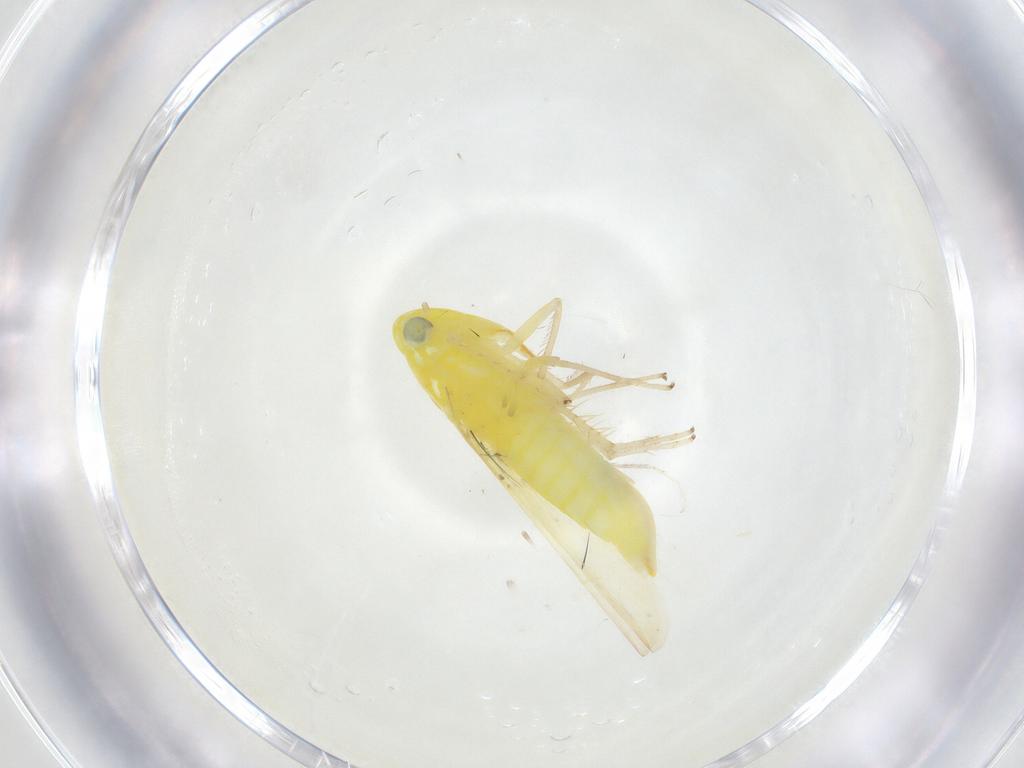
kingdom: Animalia
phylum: Arthropoda
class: Insecta
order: Hemiptera
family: Cicadellidae
